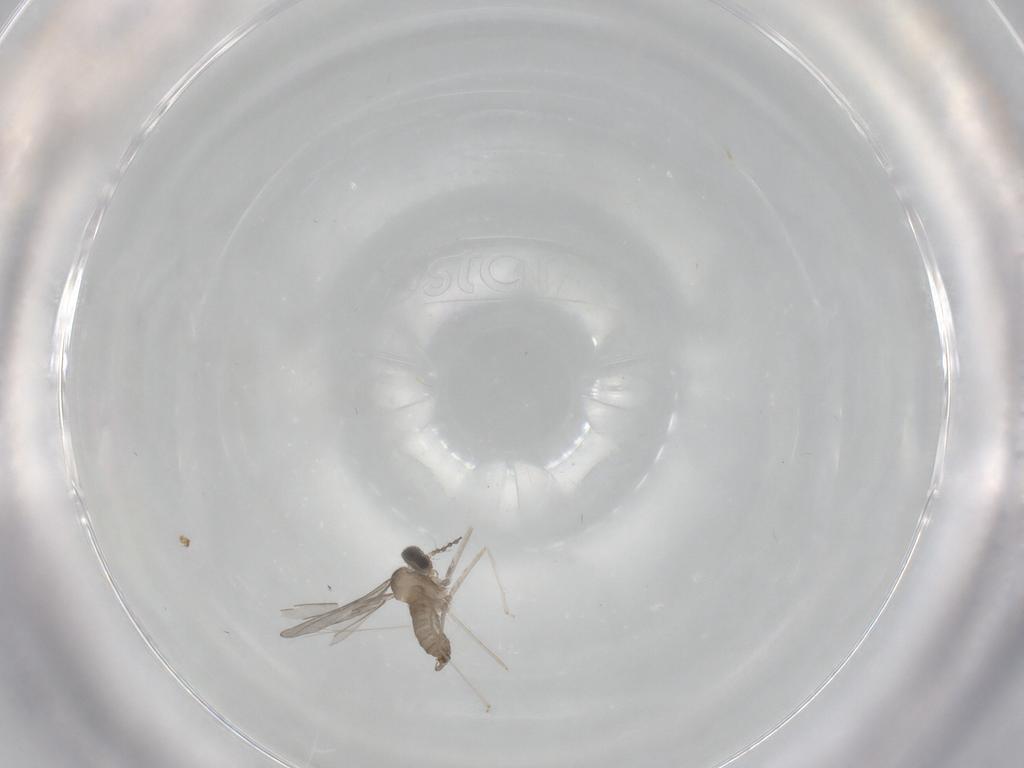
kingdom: Animalia
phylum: Arthropoda
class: Insecta
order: Diptera
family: Cecidomyiidae
